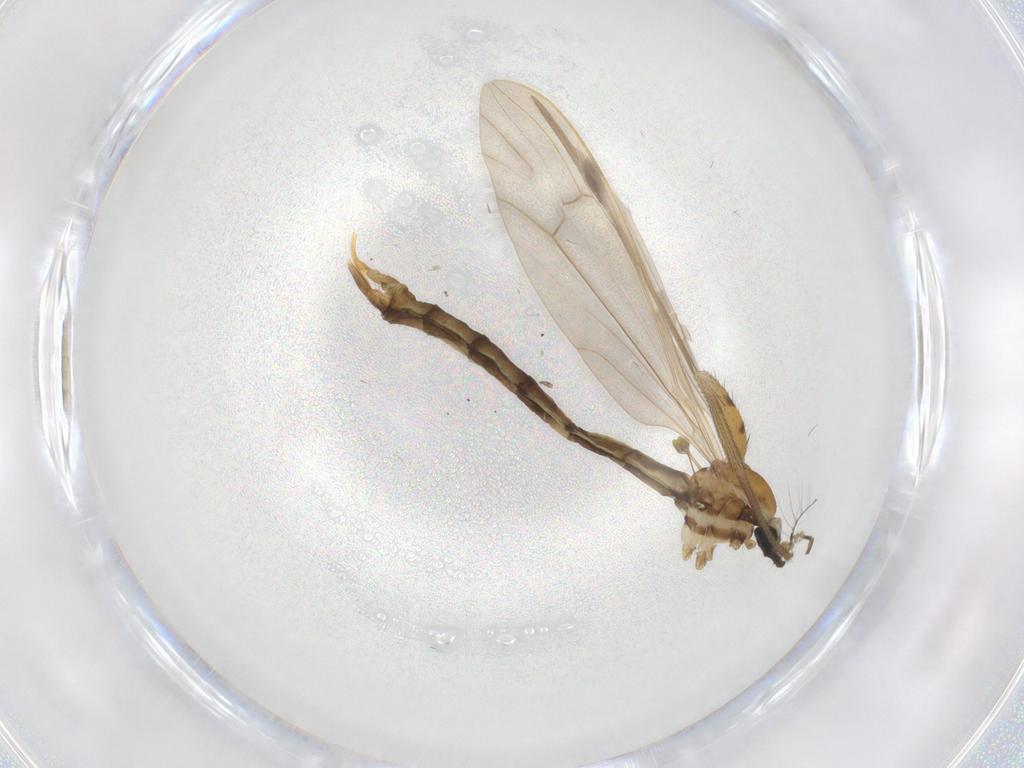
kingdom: Animalia
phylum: Arthropoda
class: Insecta
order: Diptera
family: Limoniidae
